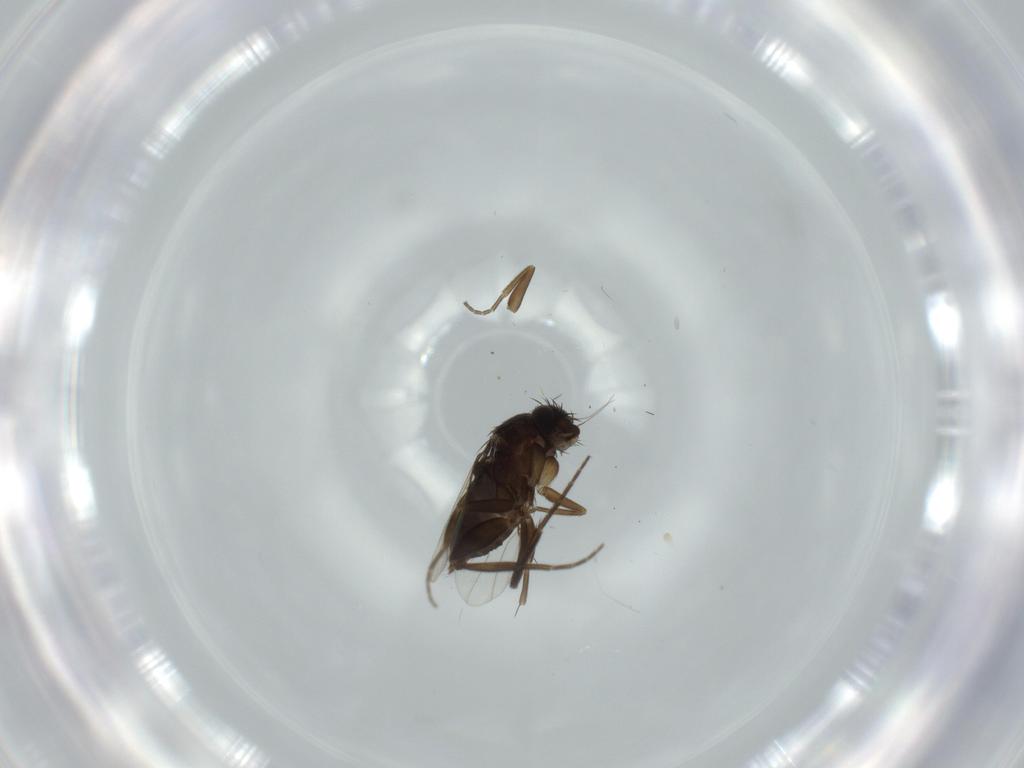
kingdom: Animalia
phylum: Arthropoda
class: Insecta
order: Diptera
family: Phoridae
